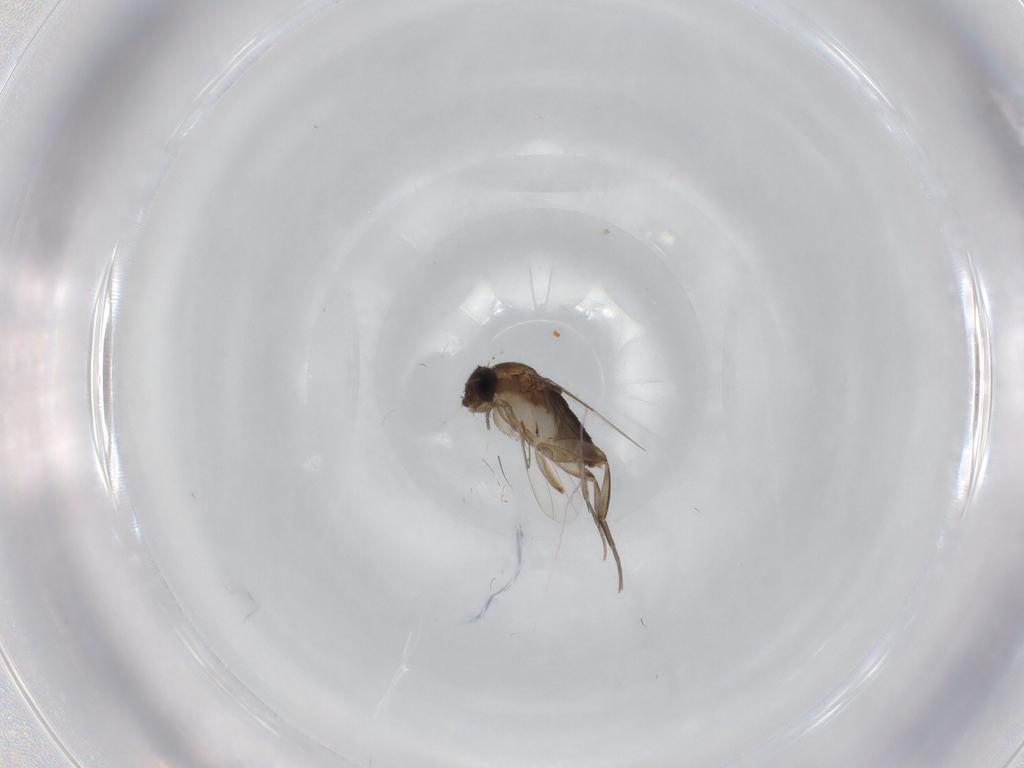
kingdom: Animalia
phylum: Arthropoda
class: Insecta
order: Diptera
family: Phoridae
